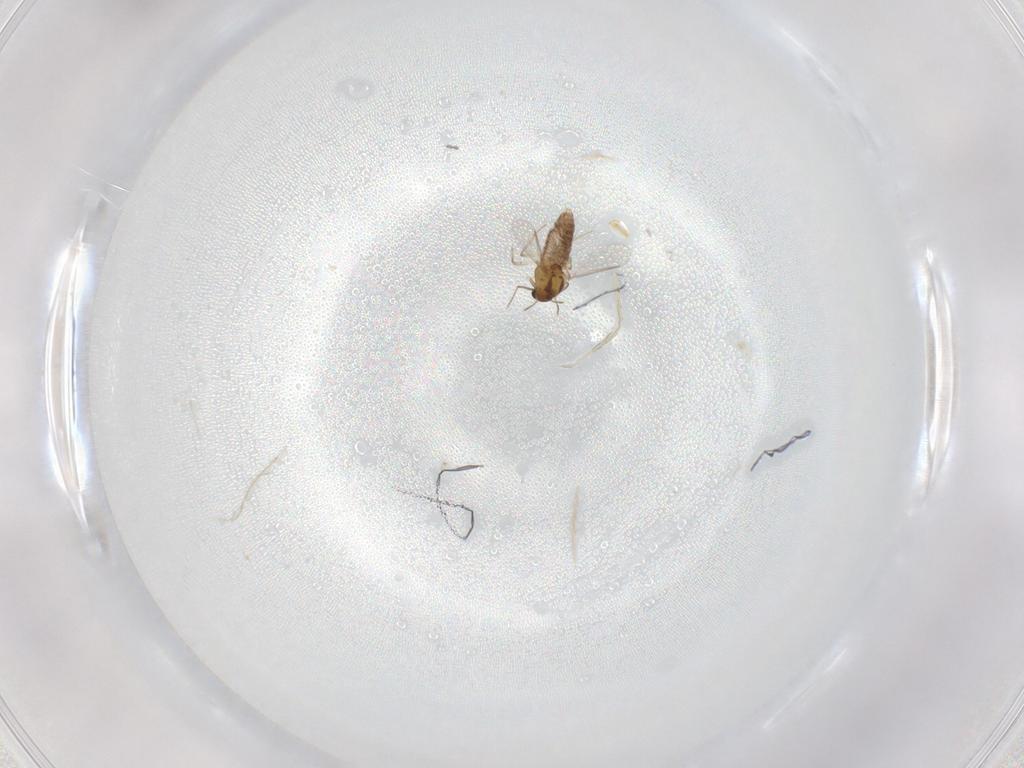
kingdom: Animalia
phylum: Arthropoda
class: Insecta
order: Diptera
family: Chironomidae
